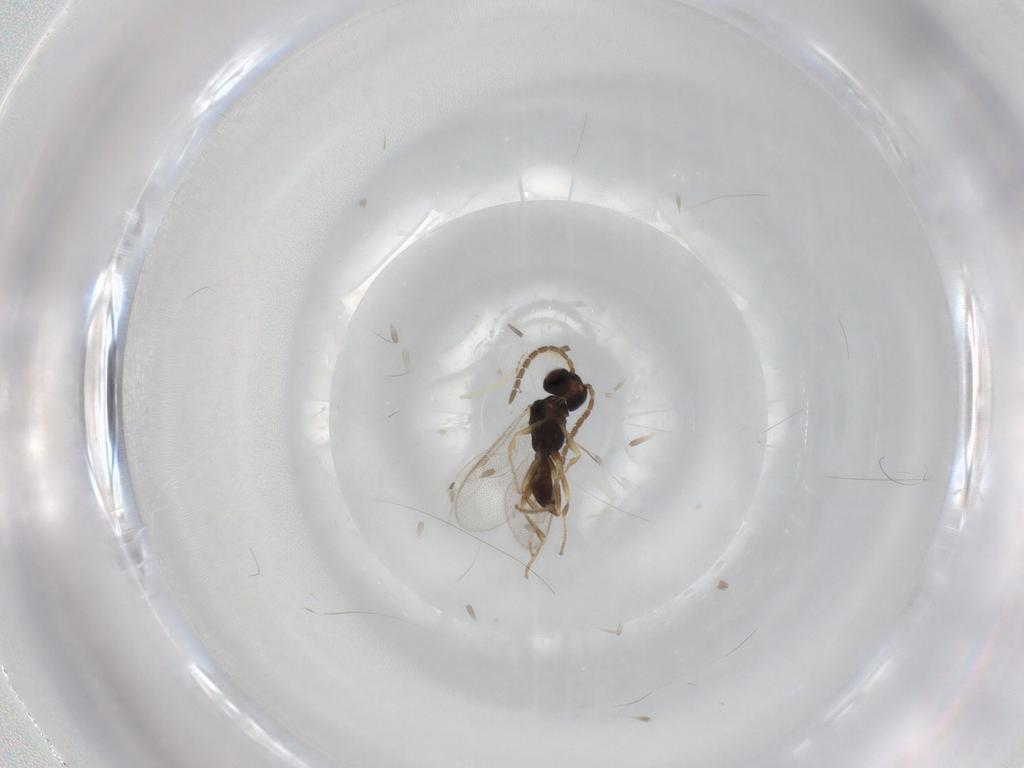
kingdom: Animalia
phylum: Arthropoda
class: Insecta
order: Hymenoptera
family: Dryinidae
